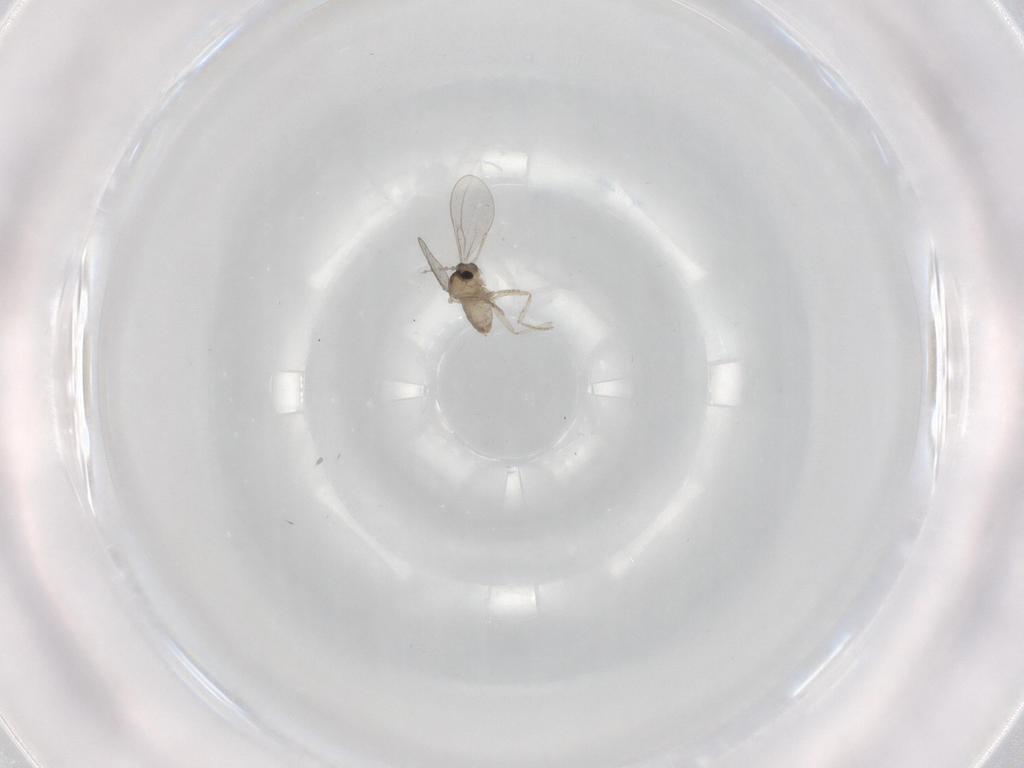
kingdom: Animalia
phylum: Arthropoda
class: Insecta
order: Diptera
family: Cecidomyiidae
